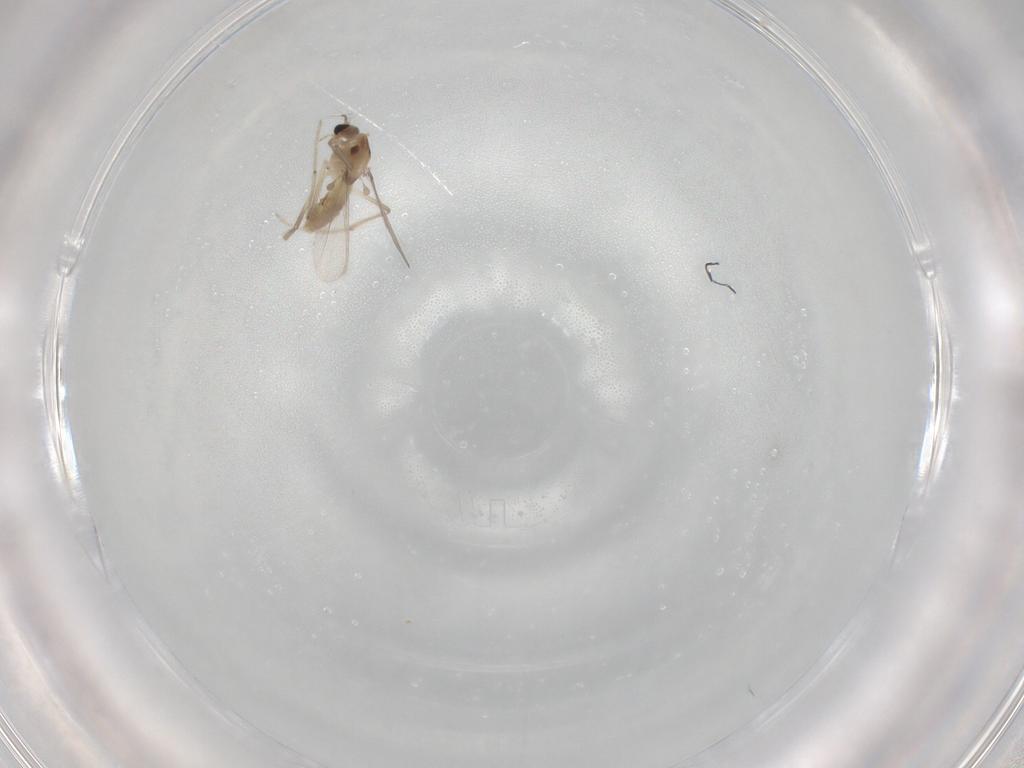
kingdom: Animalia
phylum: Arthropoda
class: Insecta
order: Diptera
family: Chironomidae
